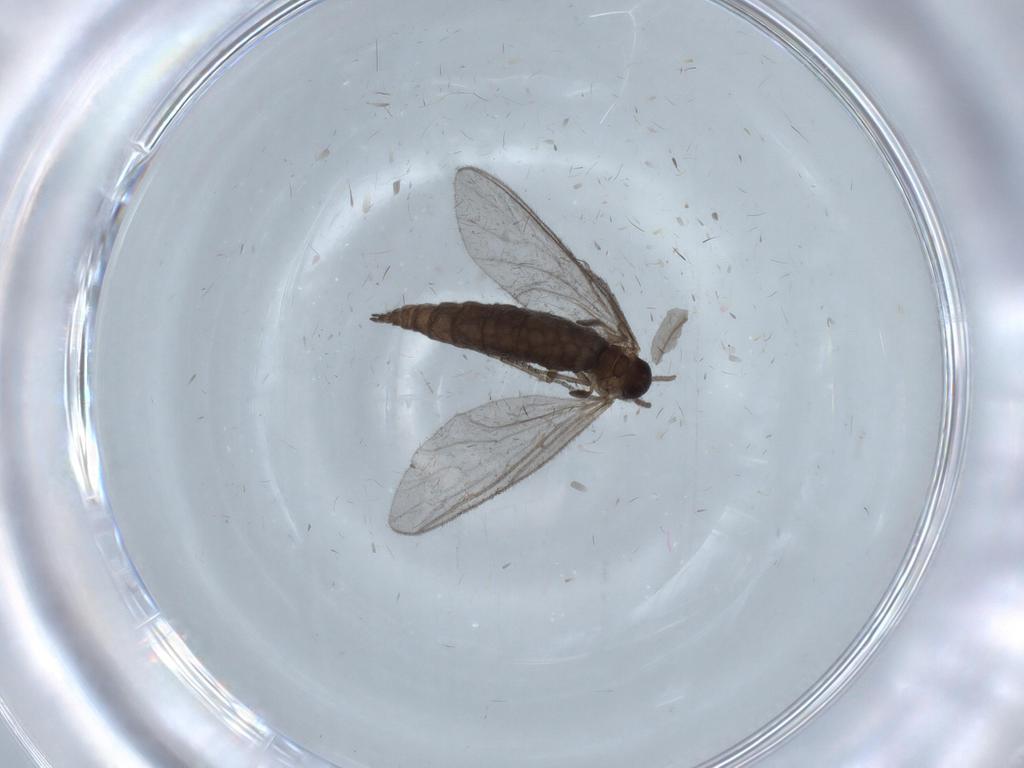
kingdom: Animalia
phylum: Arthropoda
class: Insecta
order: Diptera
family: Sciaridae
